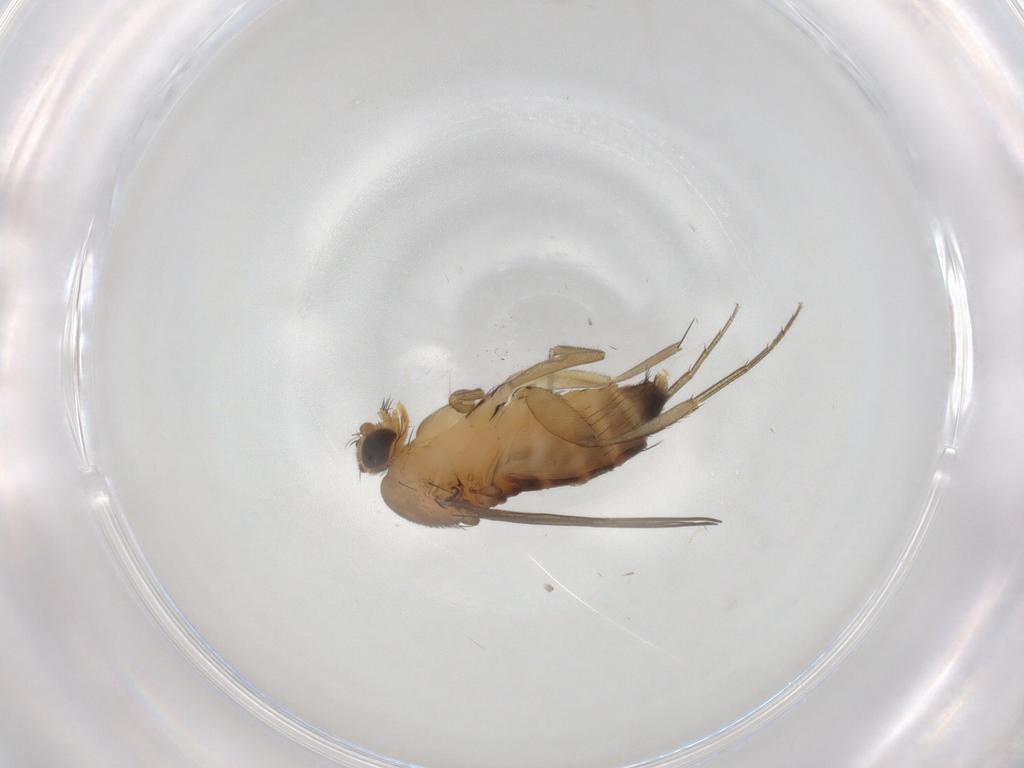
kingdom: Animalia
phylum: Arthropoda
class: Insecta
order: Diptera
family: Phoridae
